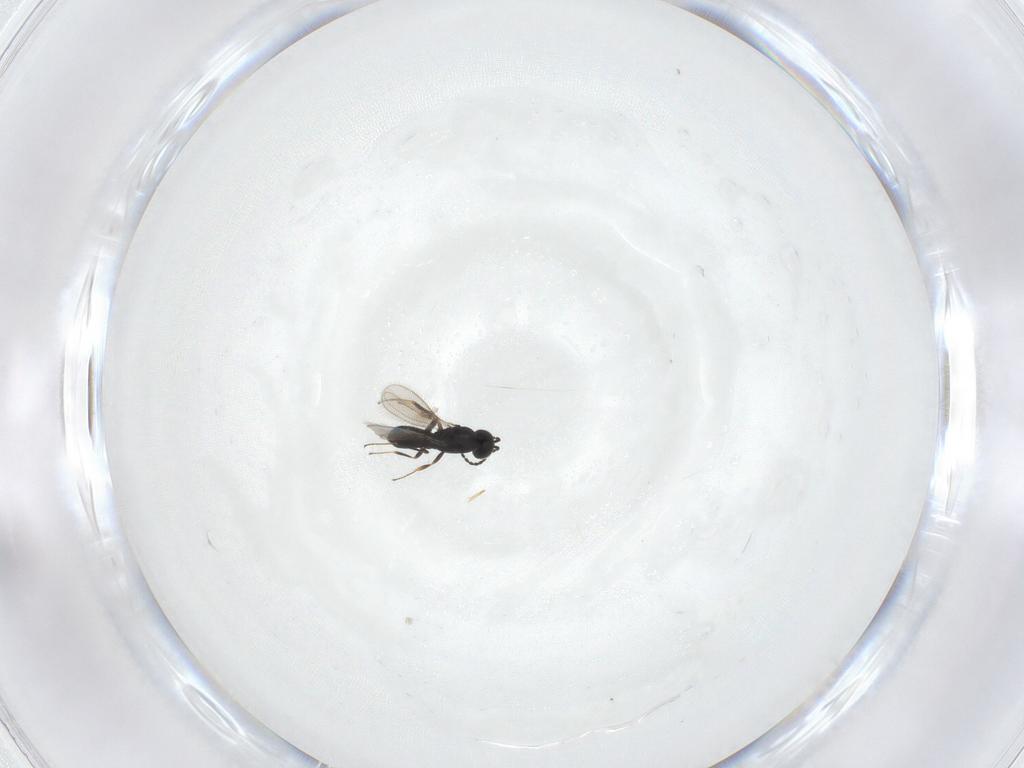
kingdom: Animalia
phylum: Arthropoda
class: Insecta
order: Hymenoptera
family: Scelionidae
